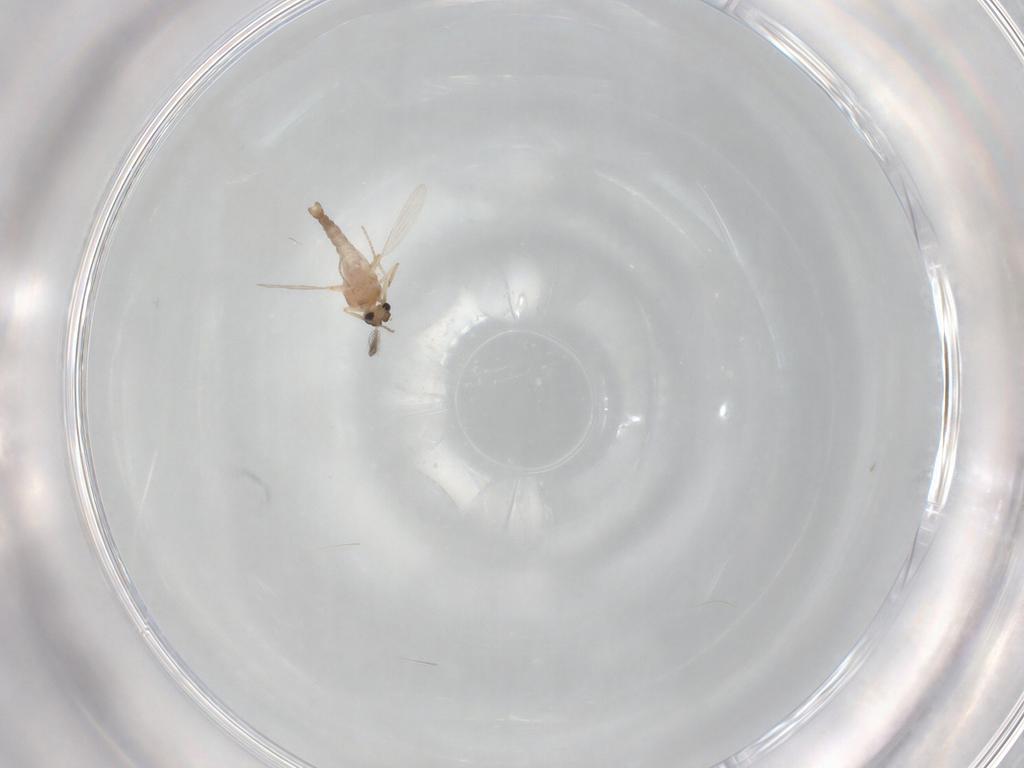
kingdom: Animalia
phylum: Arthropoda
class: Insecta
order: Diptera
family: Ceratopogonidae
